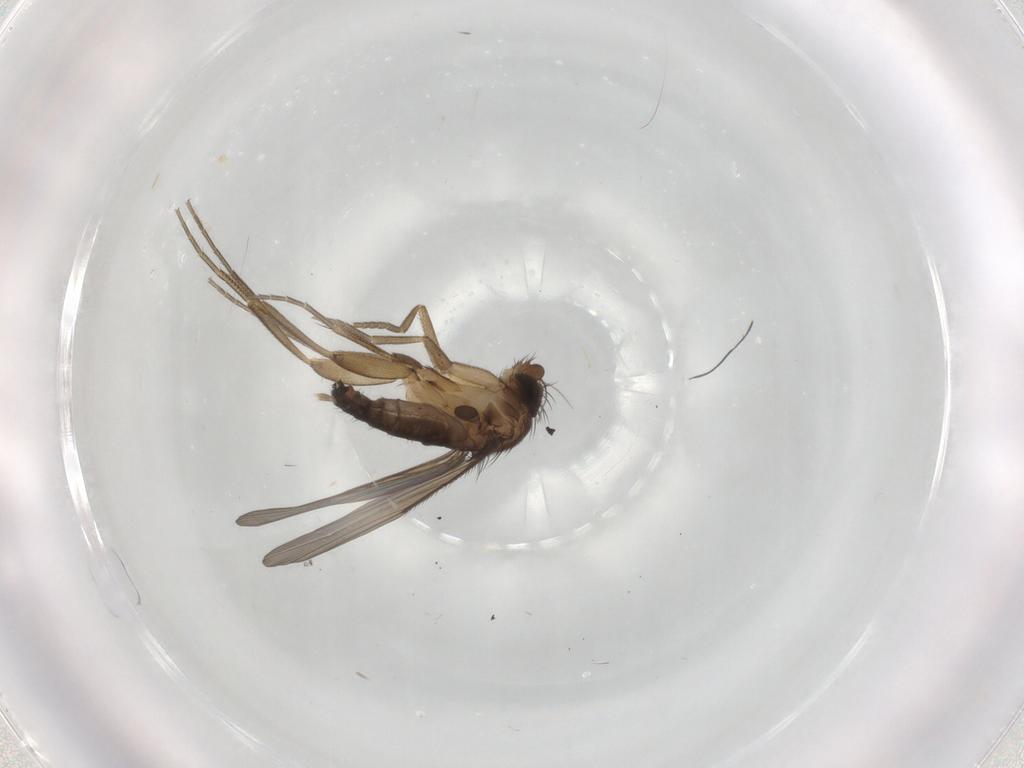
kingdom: Animalia
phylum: Arthropoda
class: Insecta
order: Diptera
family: Phoridae
